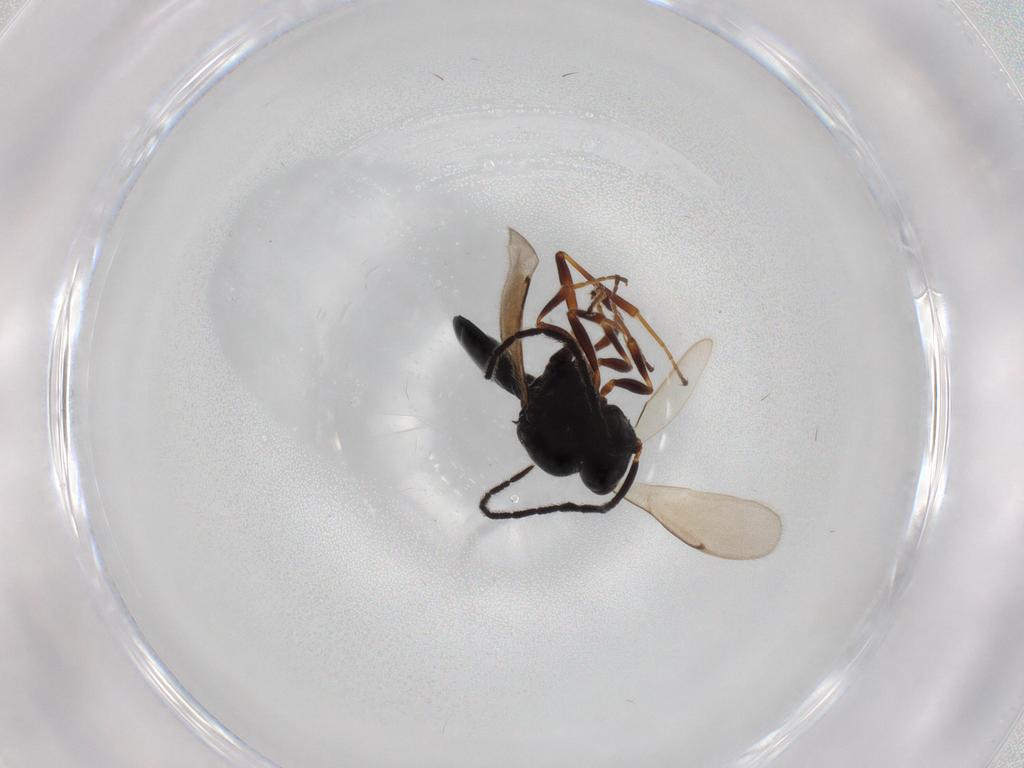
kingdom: Animalia
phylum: Arthropoda
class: Insecta
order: Hymenoptera
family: Scelionidae
